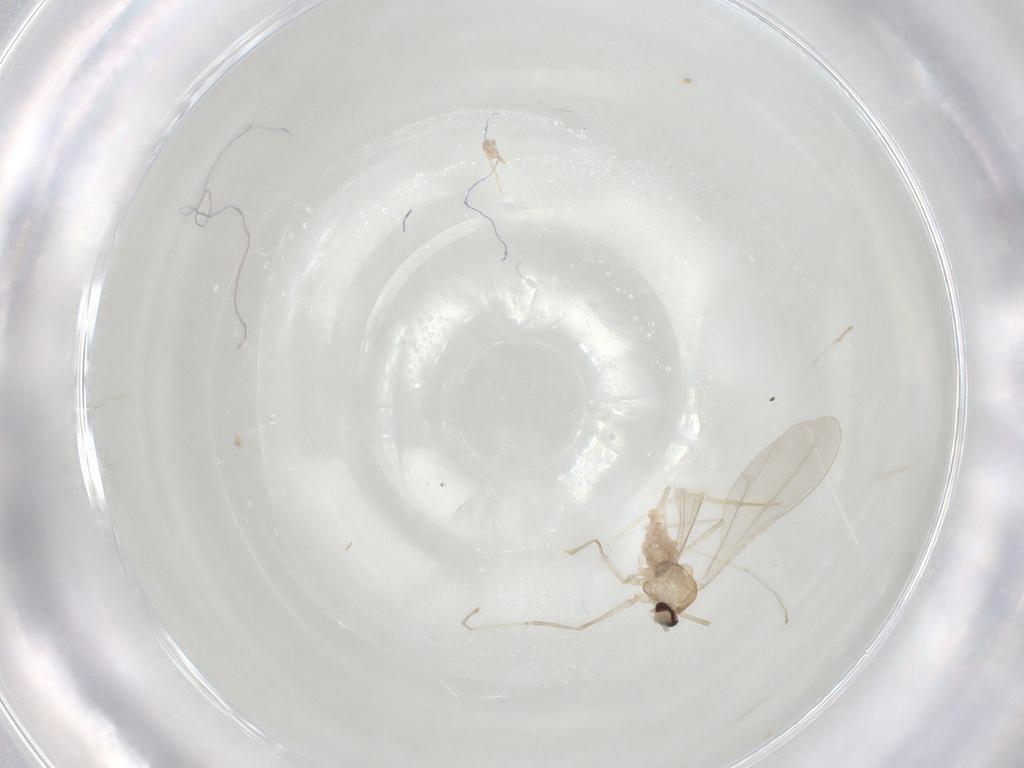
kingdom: Animalia
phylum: Arthropoda
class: Insecta
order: Diptera
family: Cecidomyiidae
